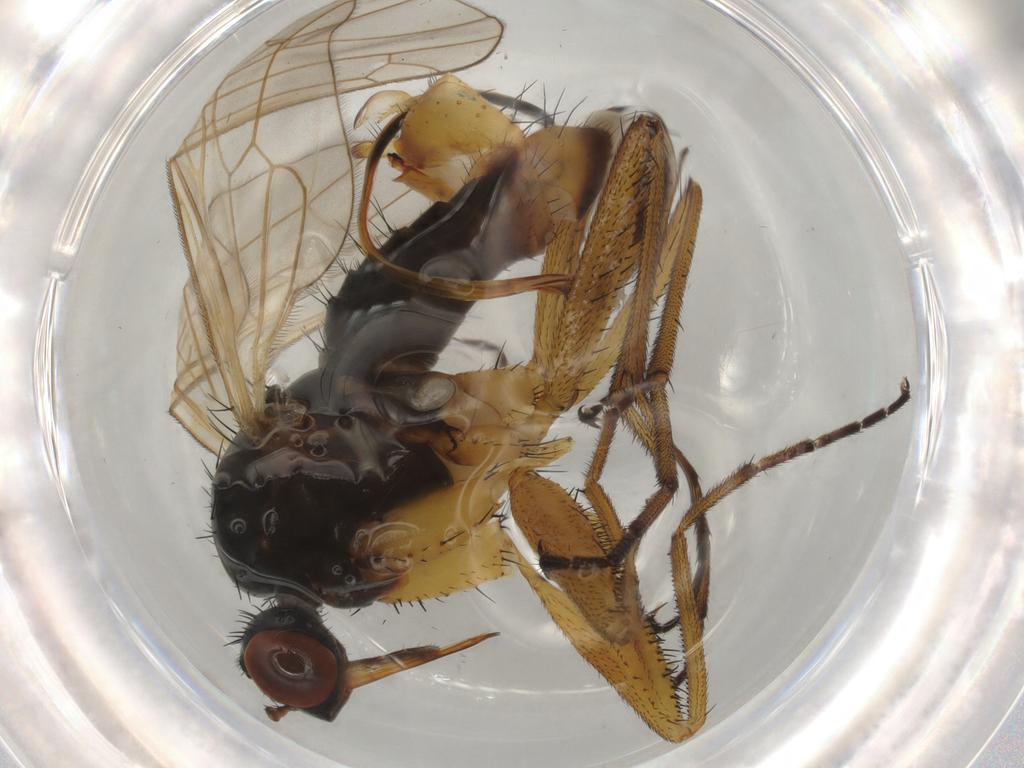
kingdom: Animalia
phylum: Arthropoda
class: Insecta
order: Diptera
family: Empididae
